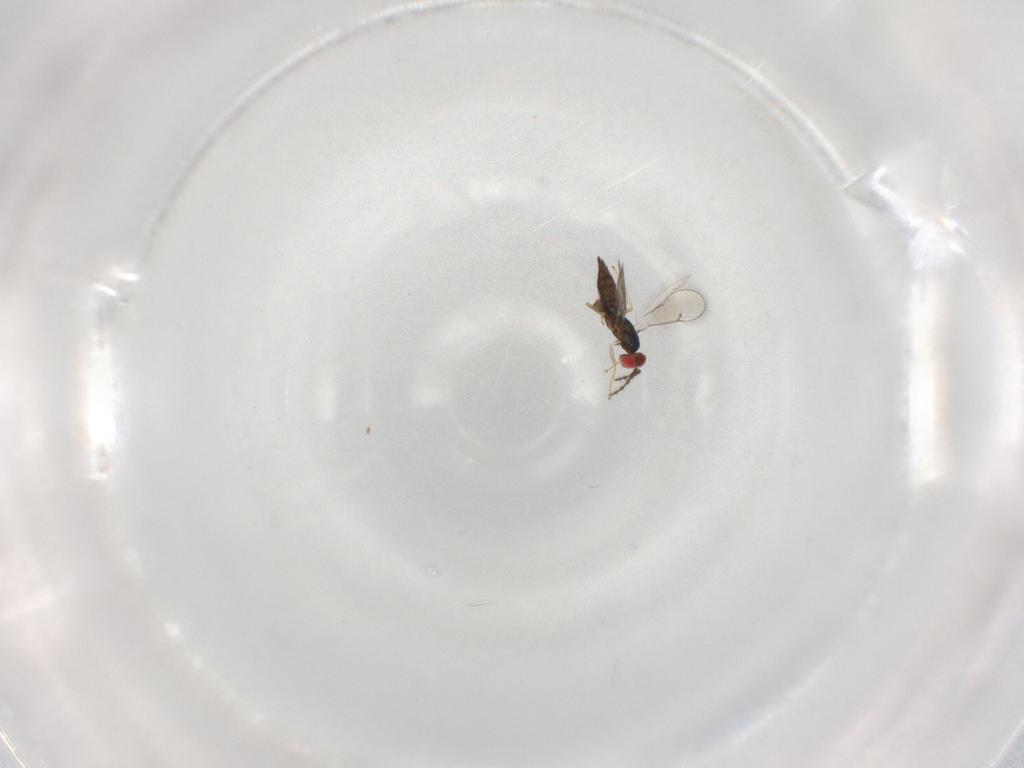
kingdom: Animalia
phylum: Arthropoda
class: Insecta
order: Hymenoptera
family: Eulophidae
